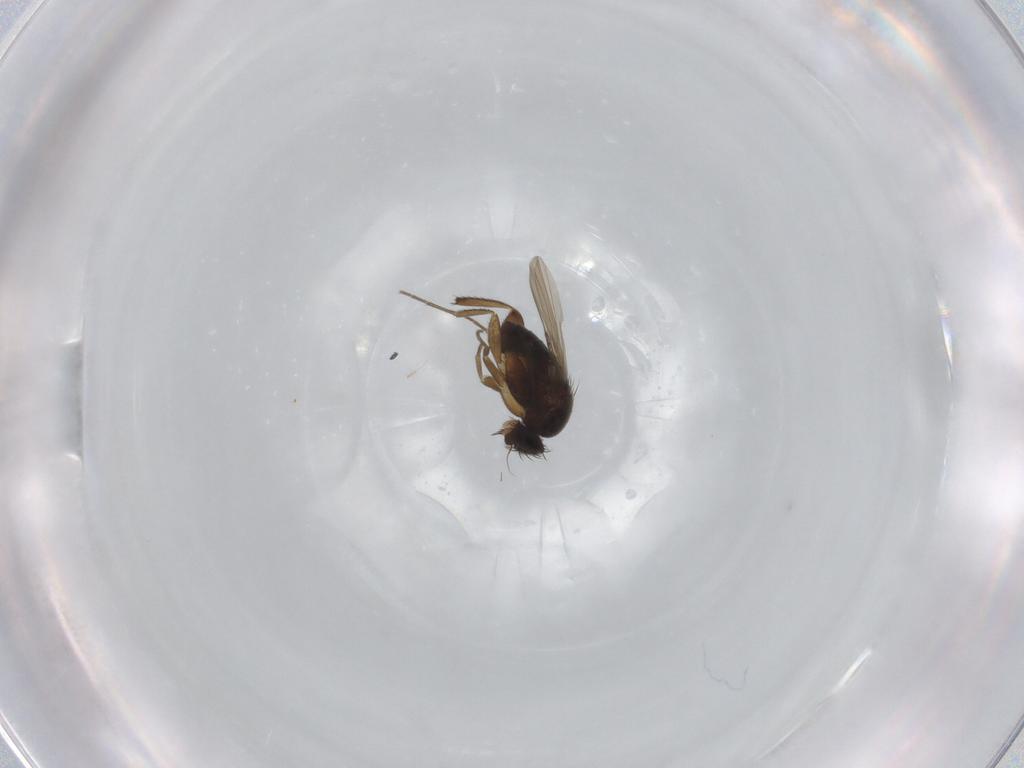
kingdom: Animalia
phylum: Arthropoda
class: Insecta
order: Diptera
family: Phoridae
